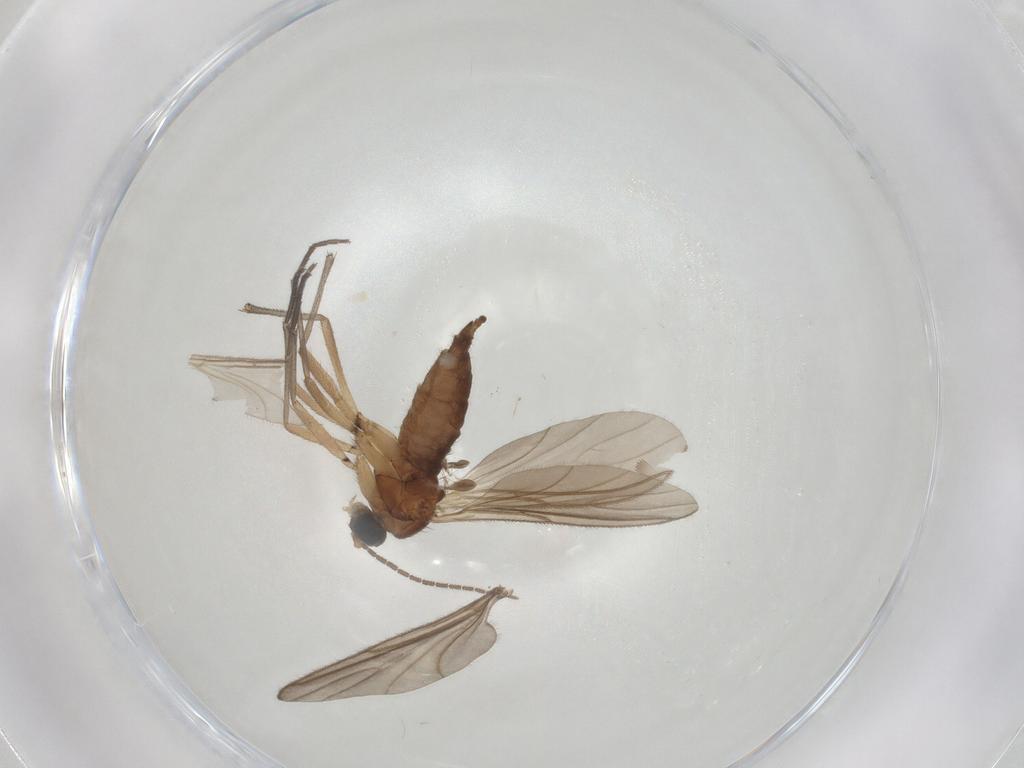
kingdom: Animalia
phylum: Arthropoda
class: Insecta
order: Diptera
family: Sciaridae
